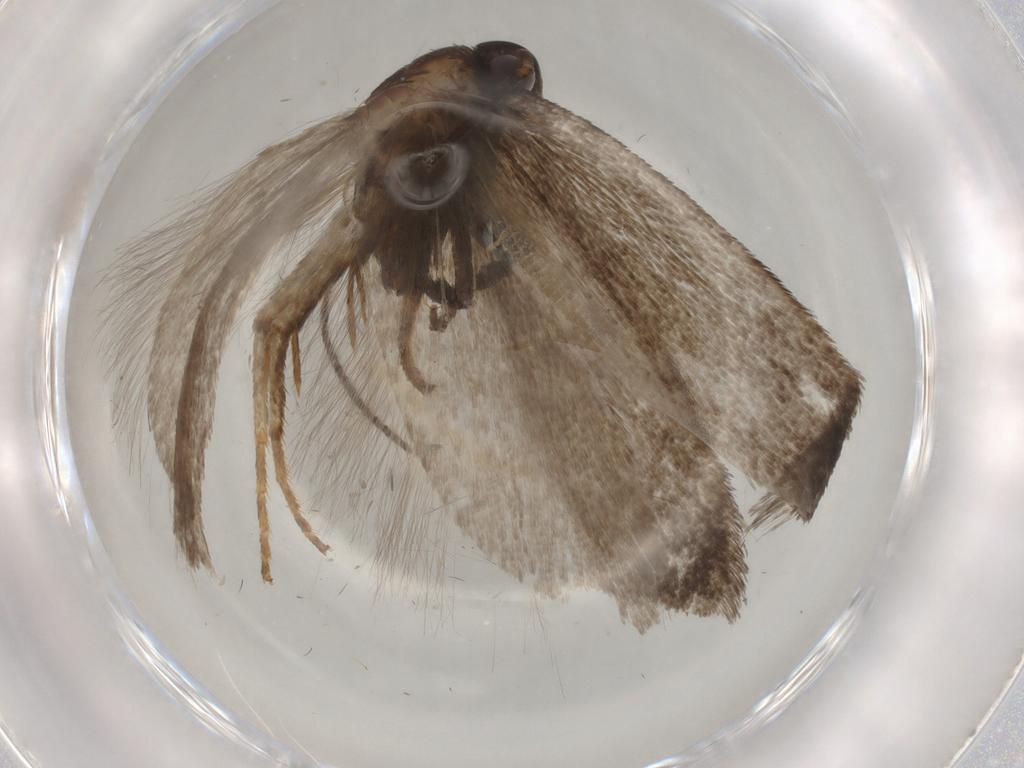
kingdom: Animalia
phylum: Arthropoda
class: Insecta
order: Lepidoptera
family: Gelechiidae
